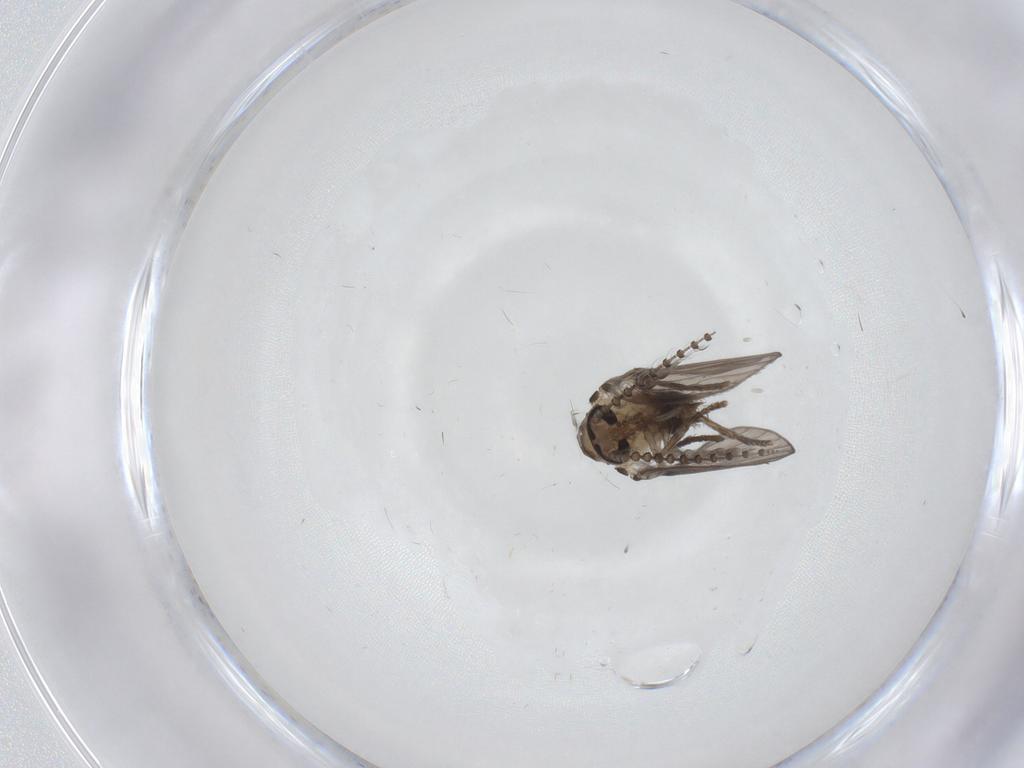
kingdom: Animalia
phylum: Arthropoda
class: Insecta
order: Diptera
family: Psychodidae
